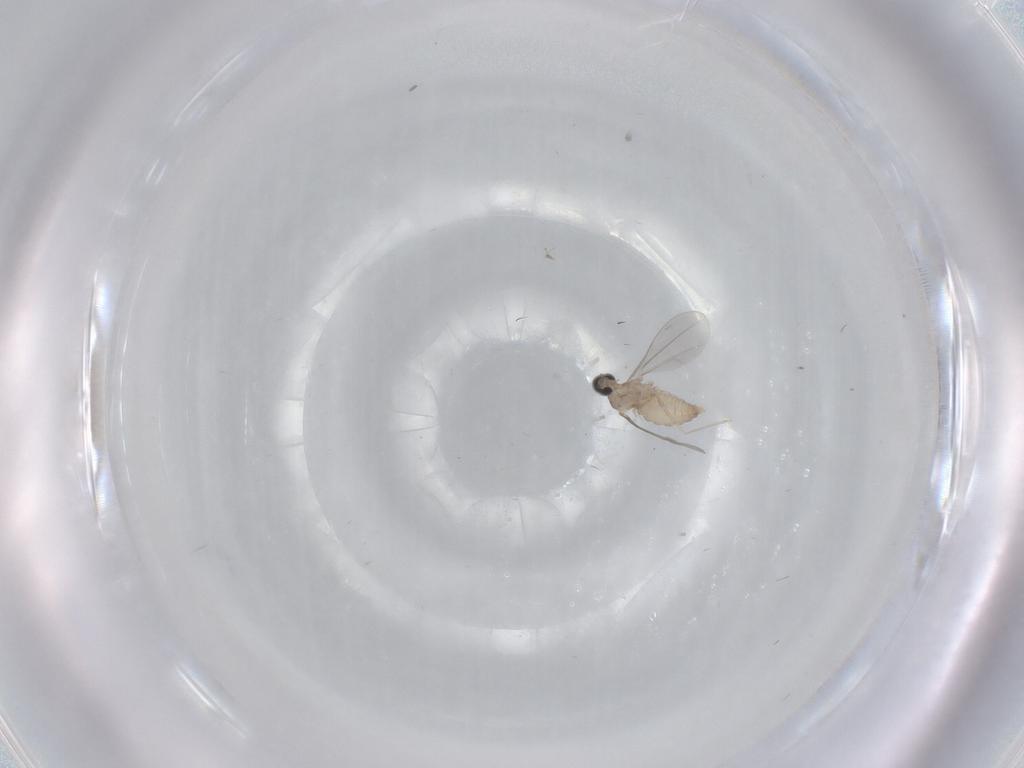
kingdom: Animalia
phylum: Arthropoda
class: Insecta
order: Diptera
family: Cecidomyiidae
